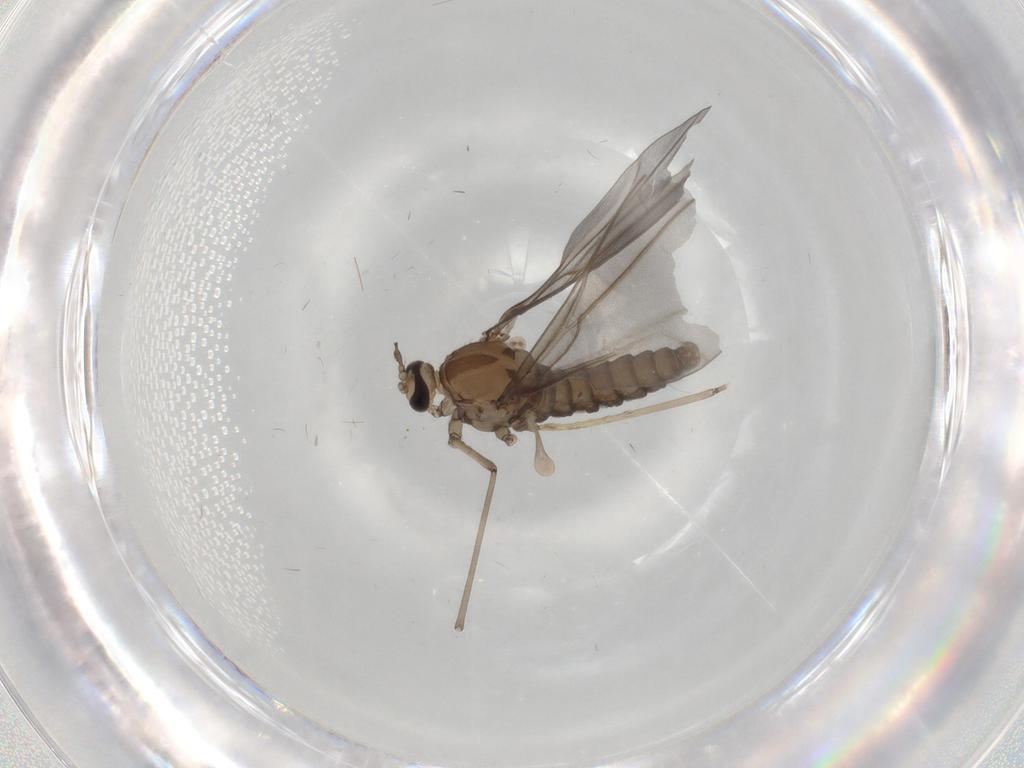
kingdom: Animalia
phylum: Arthropoda
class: Insecta
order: Diptera
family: Cecidomyiidae
